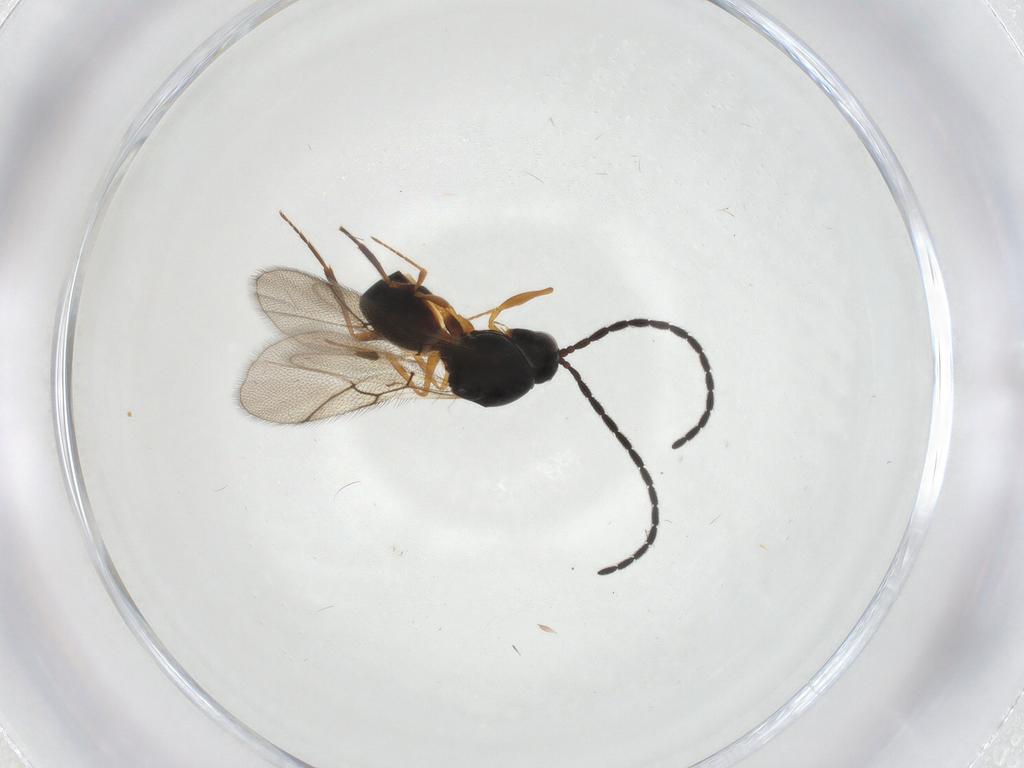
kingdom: Animalia
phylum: Arthropoda
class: Insecta
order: Hymenoptera
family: Figitidae
